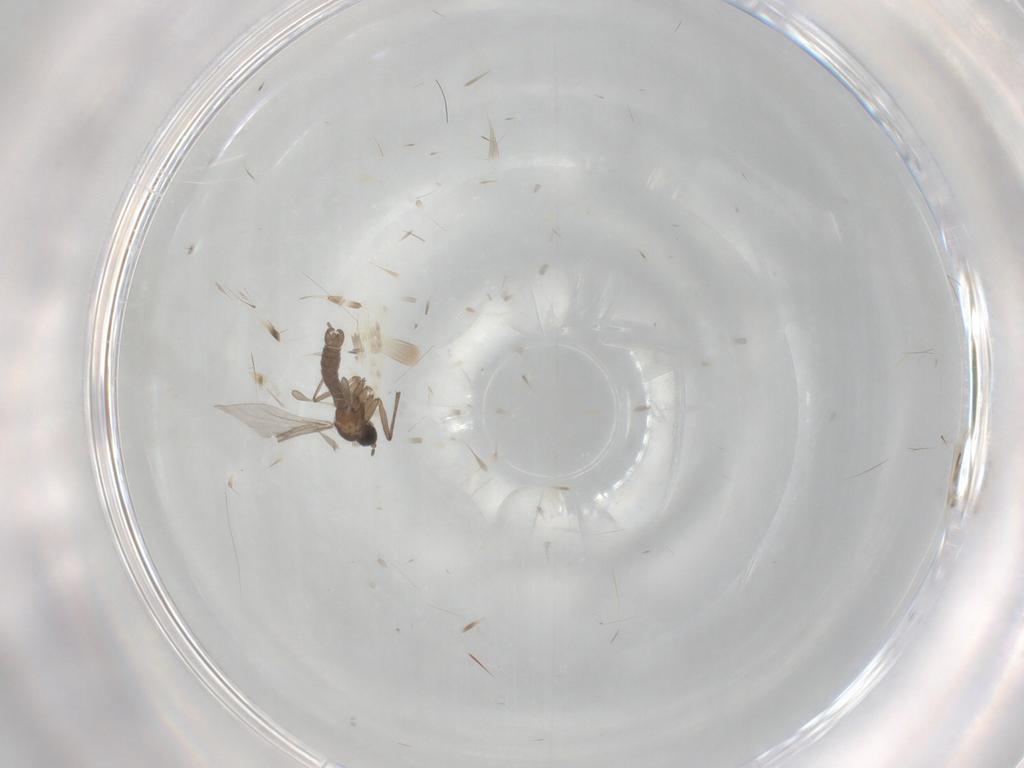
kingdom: Animalia
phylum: Arthropoda
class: Insecta
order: Diptera
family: Sciaridae
